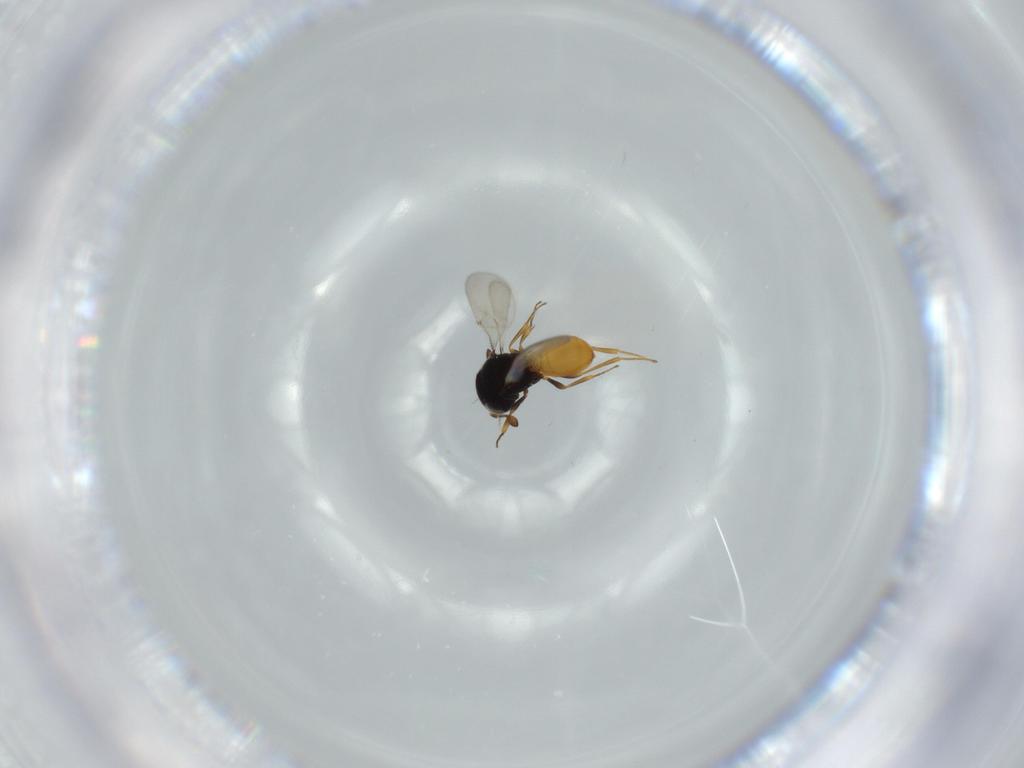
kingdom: Animalia
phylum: Arthropoda
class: Insecta
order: Hymenoptera
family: Scelionidae
